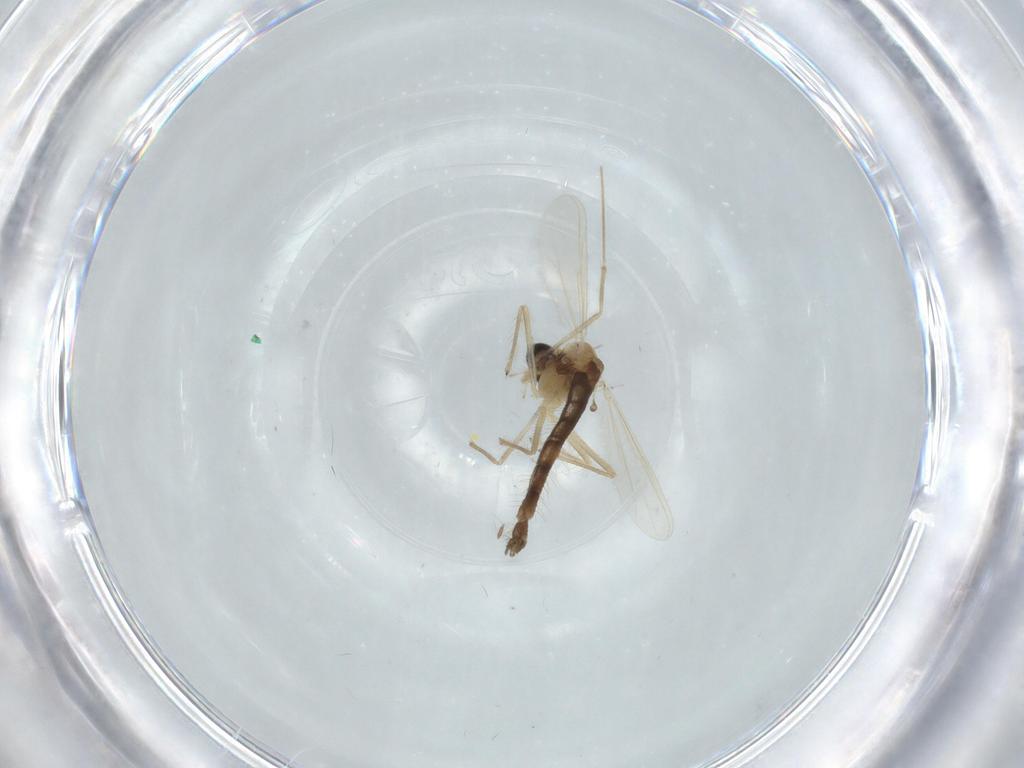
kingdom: Animalia
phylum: Arthropoda
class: Insecta
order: Diptera
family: Chironomidae
